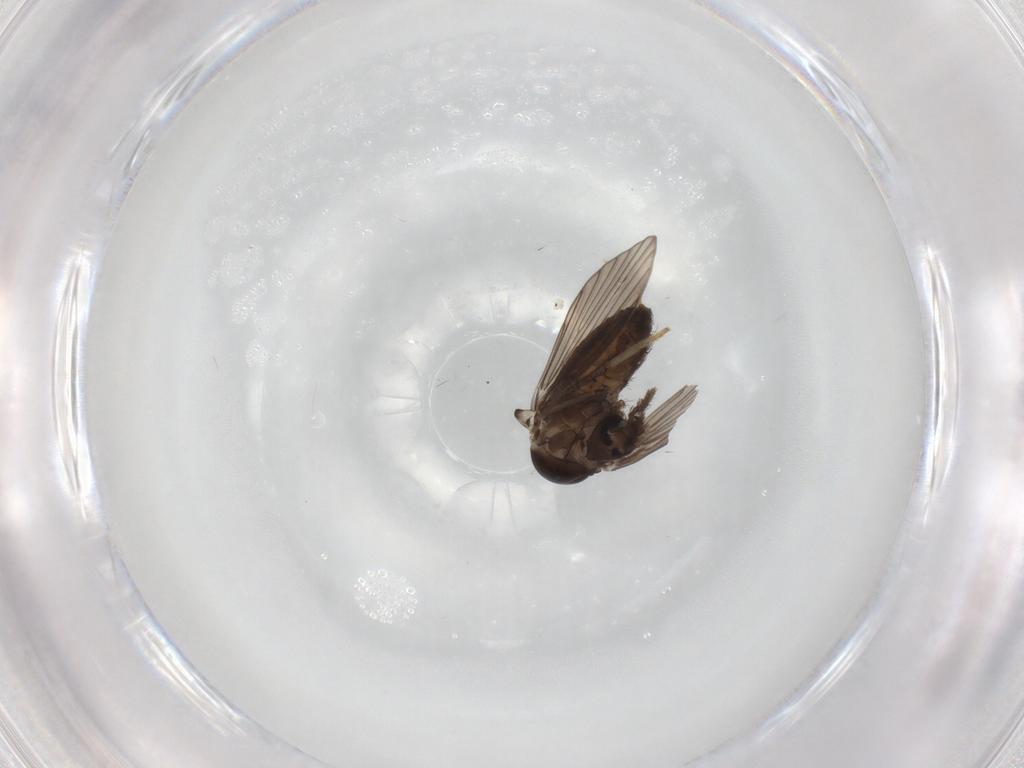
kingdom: Animalia
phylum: Arthropoda
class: Insecta
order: Diptera
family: Psychodidae
